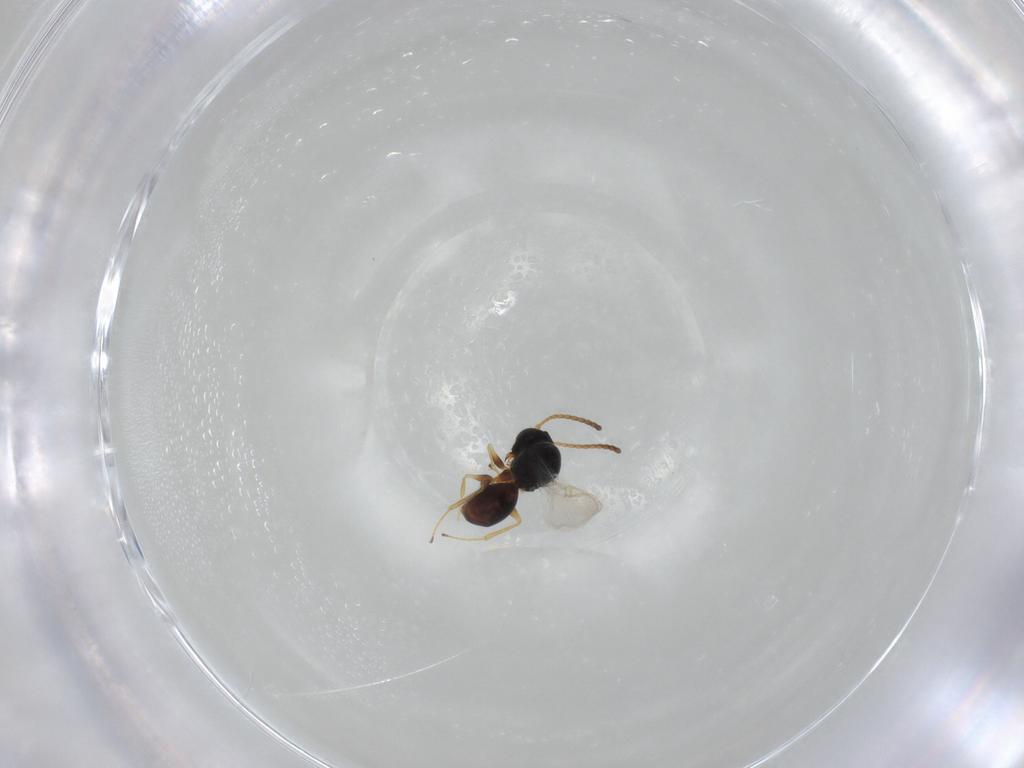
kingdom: Animalia
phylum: Arthropoda
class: Insecta
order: Hymenoptera
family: Figitidae
